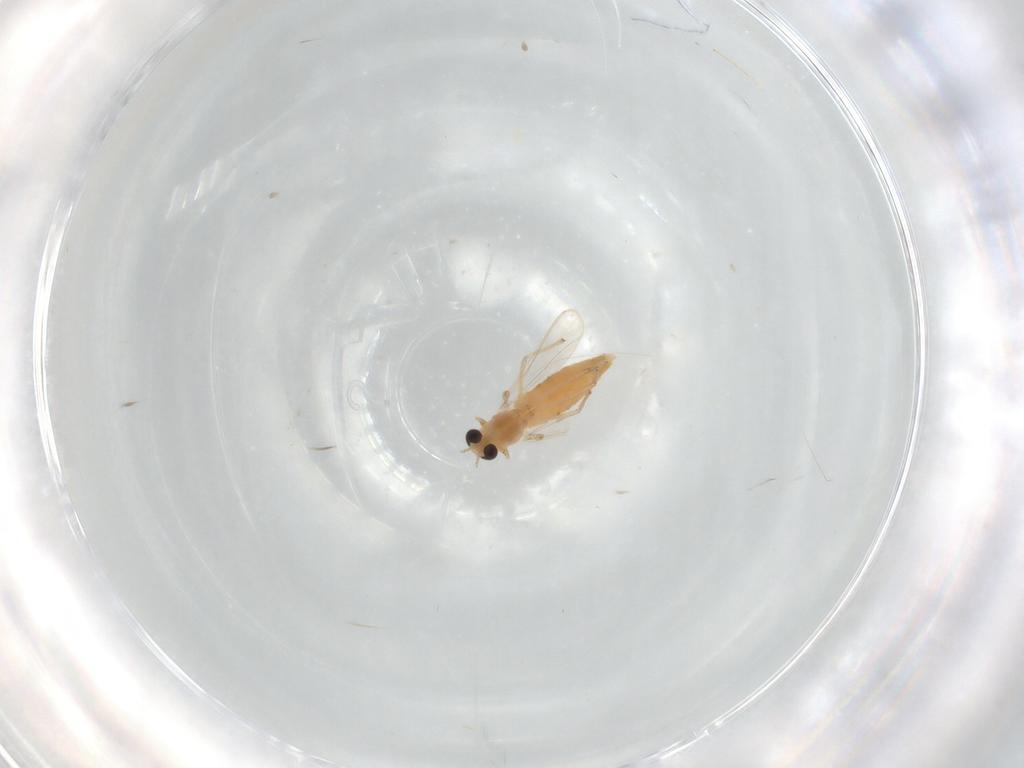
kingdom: Animalia
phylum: Arthropoda
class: Insecta
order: Diptera
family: Chironomidae
